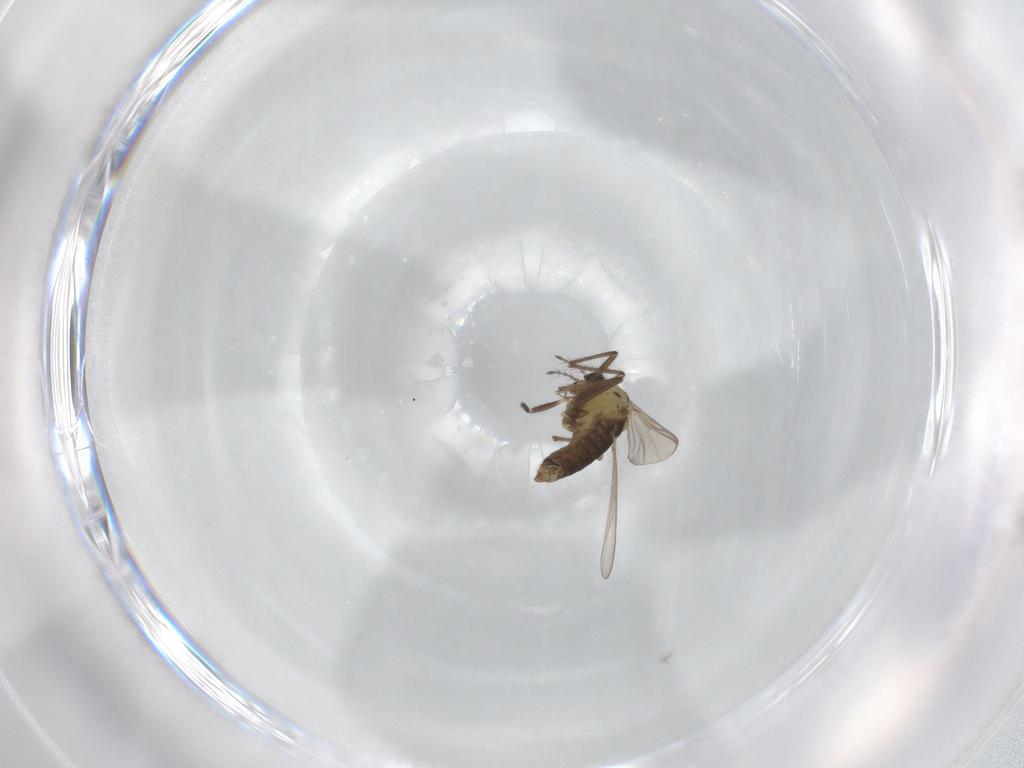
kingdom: Animalia
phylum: Arthropoda
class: Insecta
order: Diptera
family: Chironomidae
